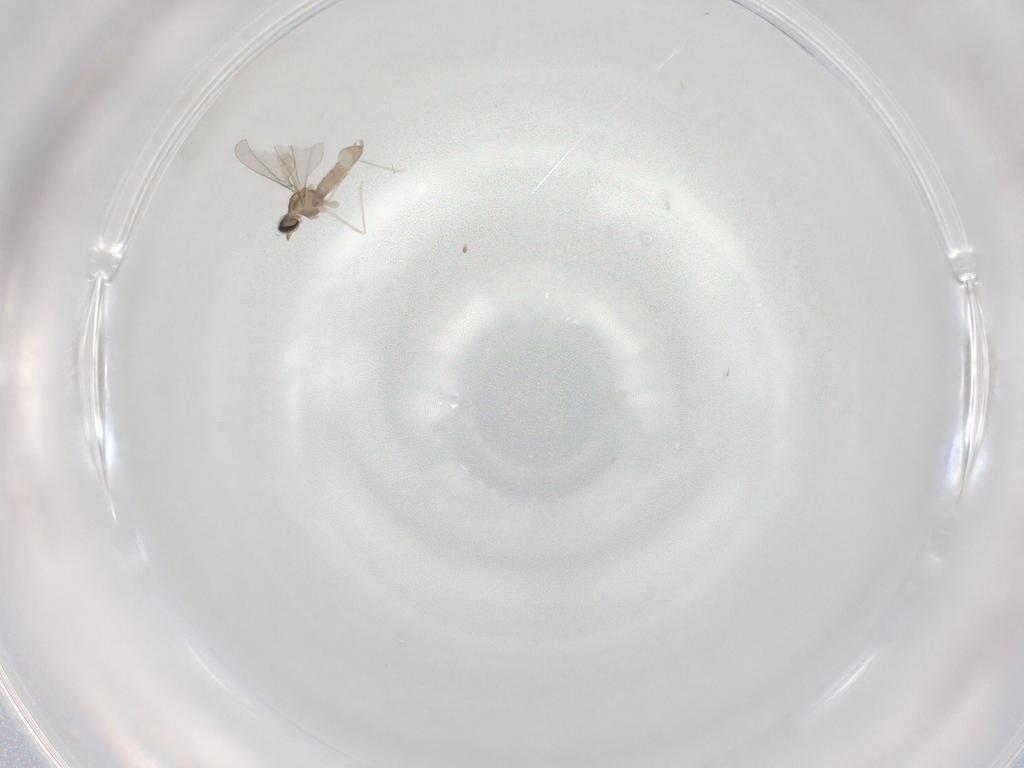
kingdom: Animalia
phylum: Arthropoda
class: Insecta
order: Diptera
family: Cecidomyiidae
